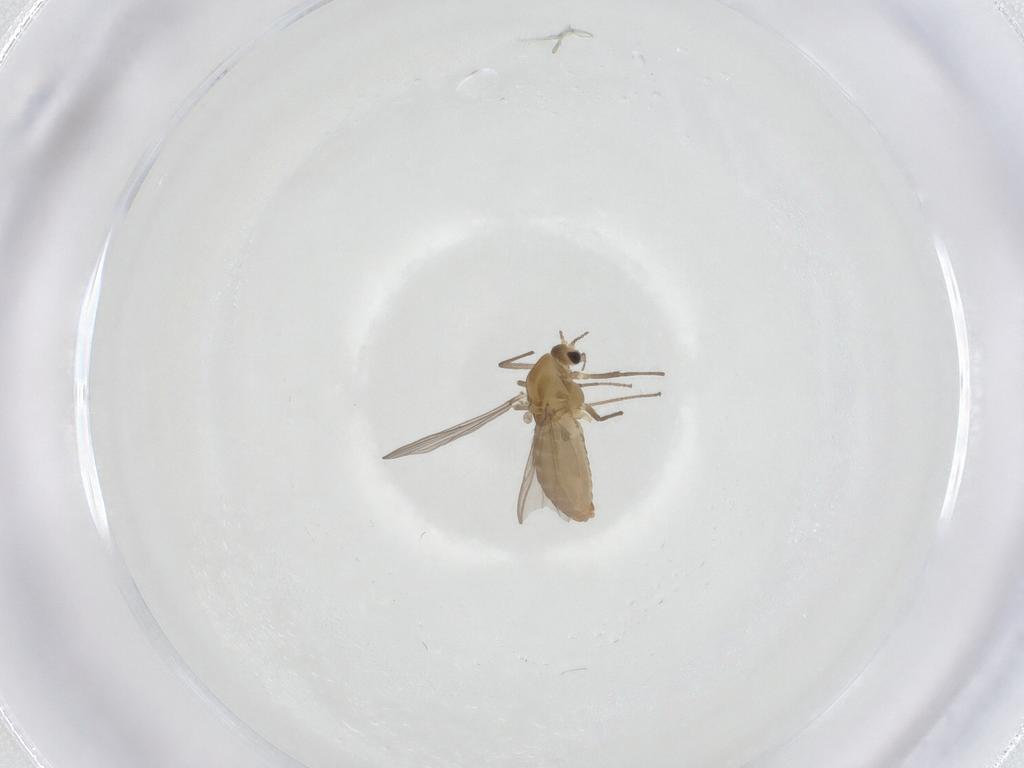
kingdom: Animalia
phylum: Arthropoda
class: Insecta
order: Diptera
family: Chironomidae
